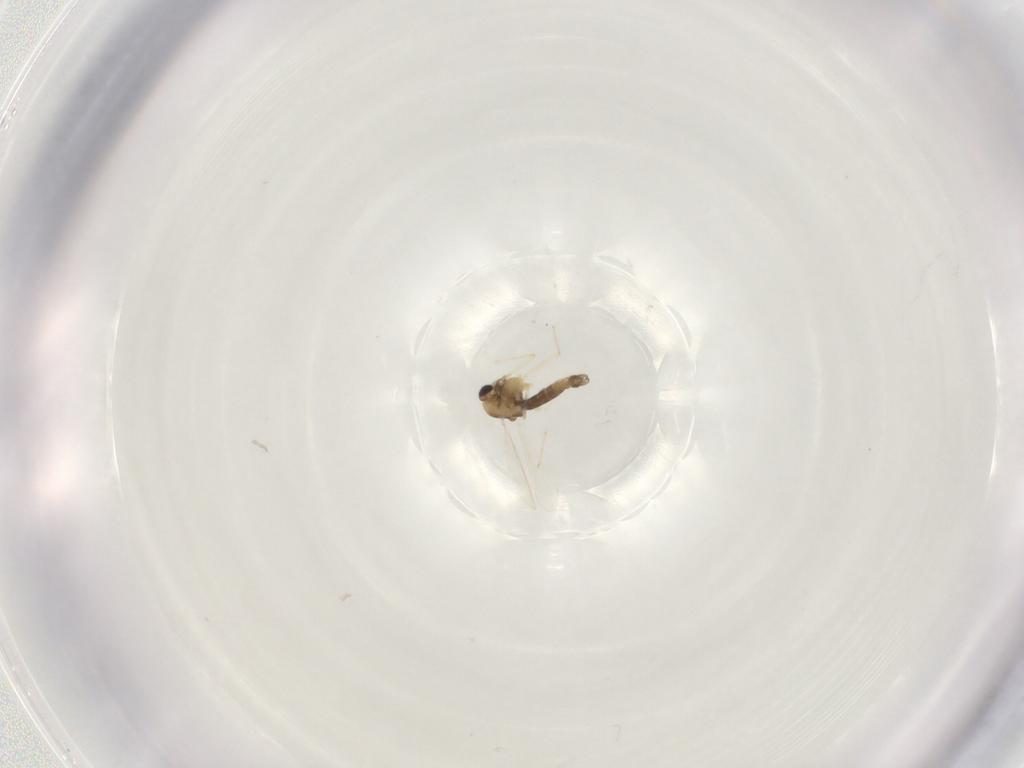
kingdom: Animalia
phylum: Arthropoda
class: Insecta
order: Diptera
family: Chironomidae
